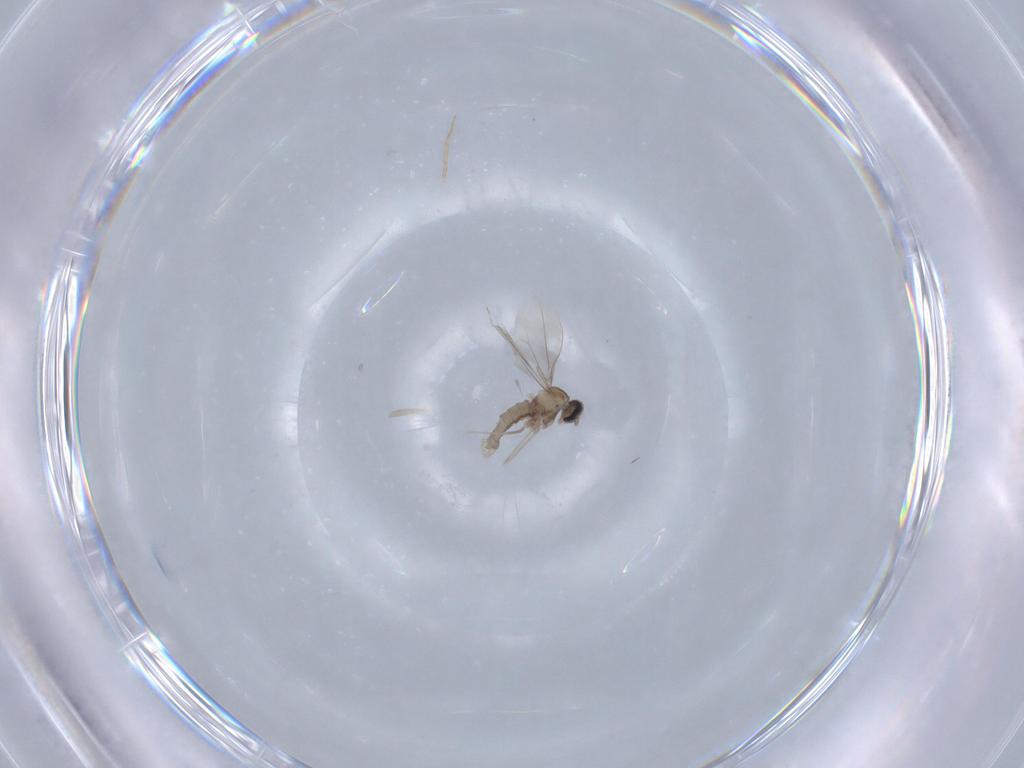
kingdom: Animalia
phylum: Arthropoda
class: Insecta
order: Diptera
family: Cecidomyiidae
